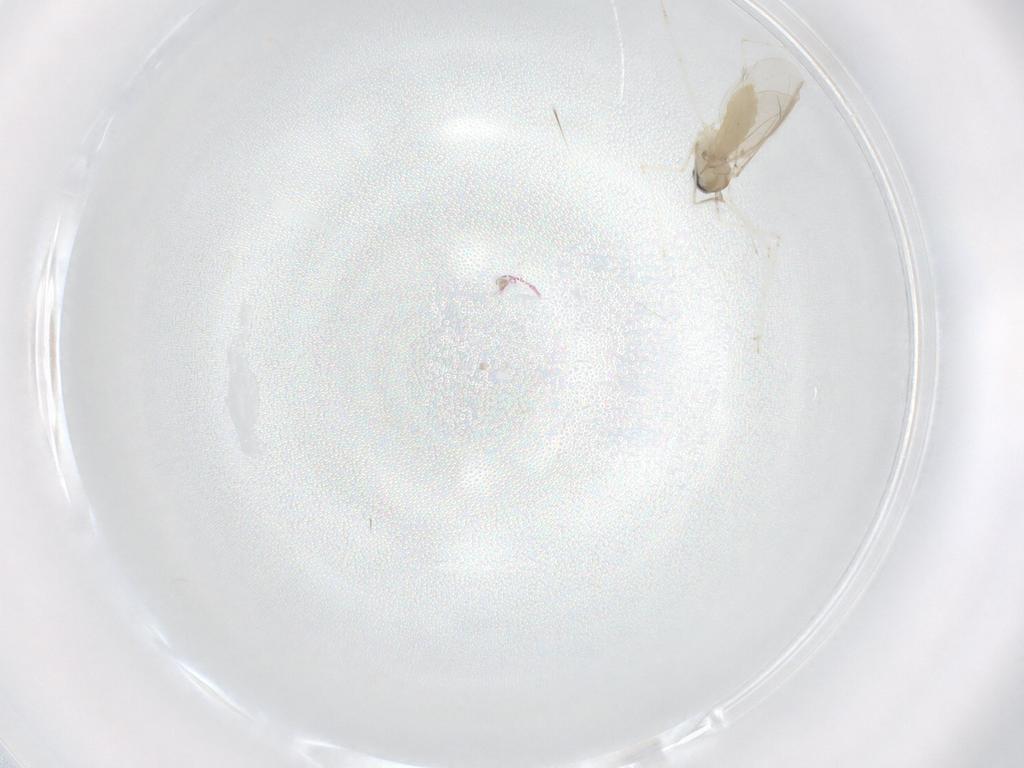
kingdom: Animalia
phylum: Arthropoda
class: Insecta
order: Diptera
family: Cecidomyiidae
